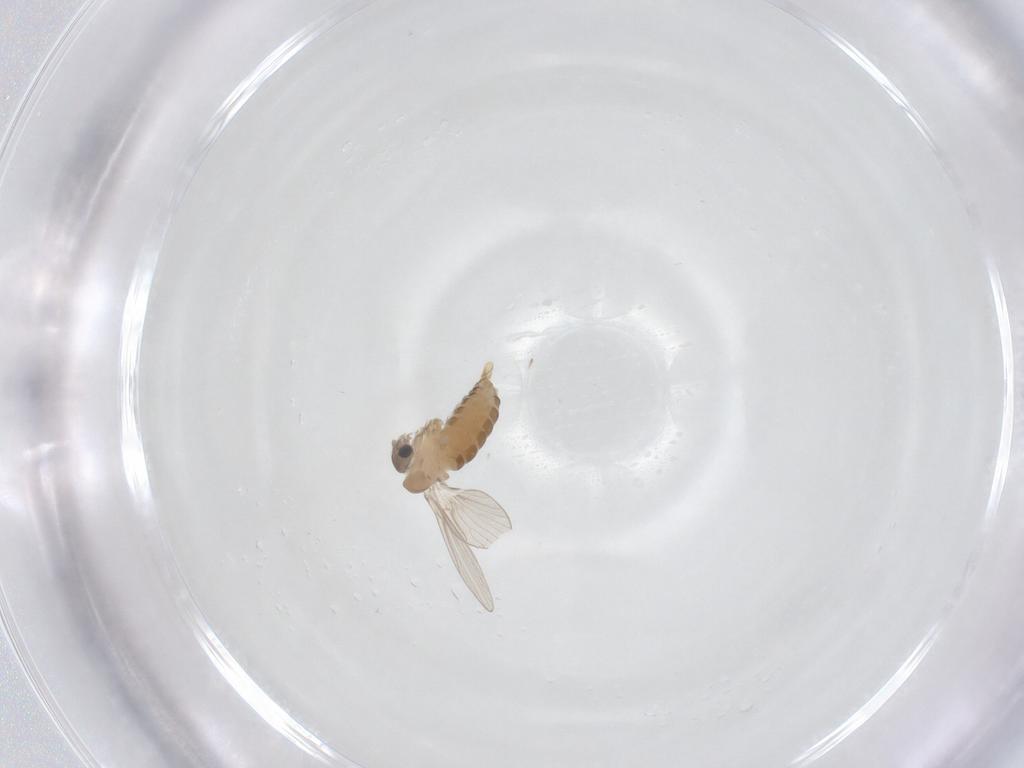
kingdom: Animalia
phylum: Arthropoda
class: Insecta
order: Diptera
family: Psychodidae
